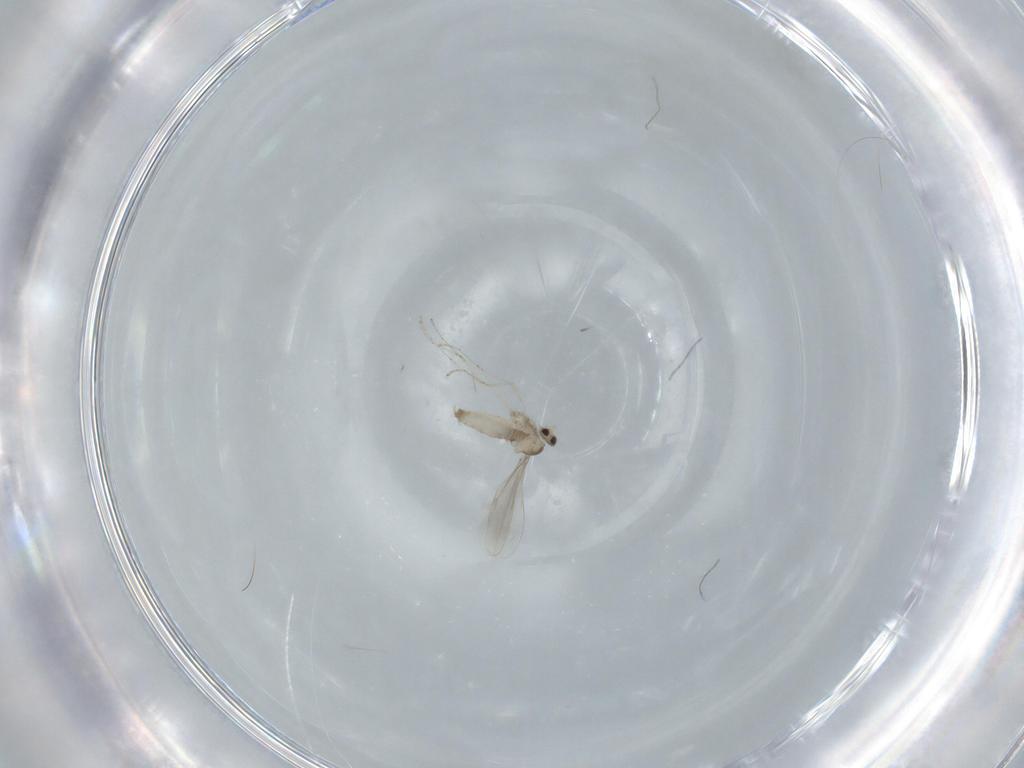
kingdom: Animalia
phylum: Arthropoda
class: Insecta
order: Diptera
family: Cecidomyiidae
